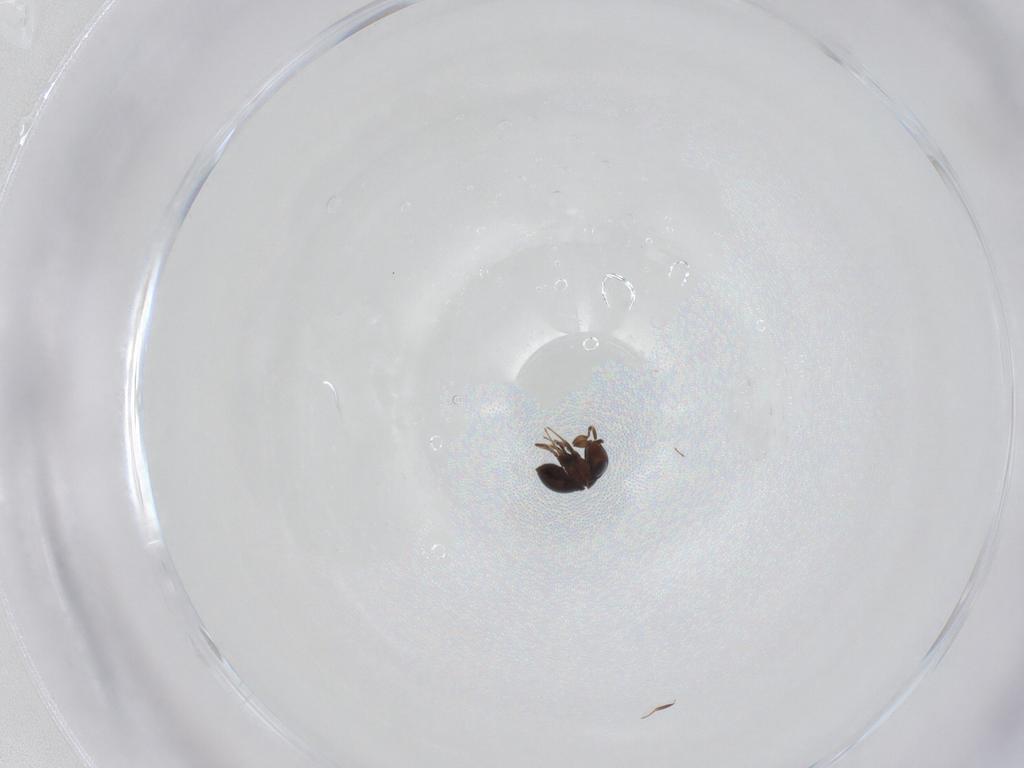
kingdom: Animalia
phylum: Arthropoda
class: Insecta
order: Hymenoptera
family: Scelionidae
